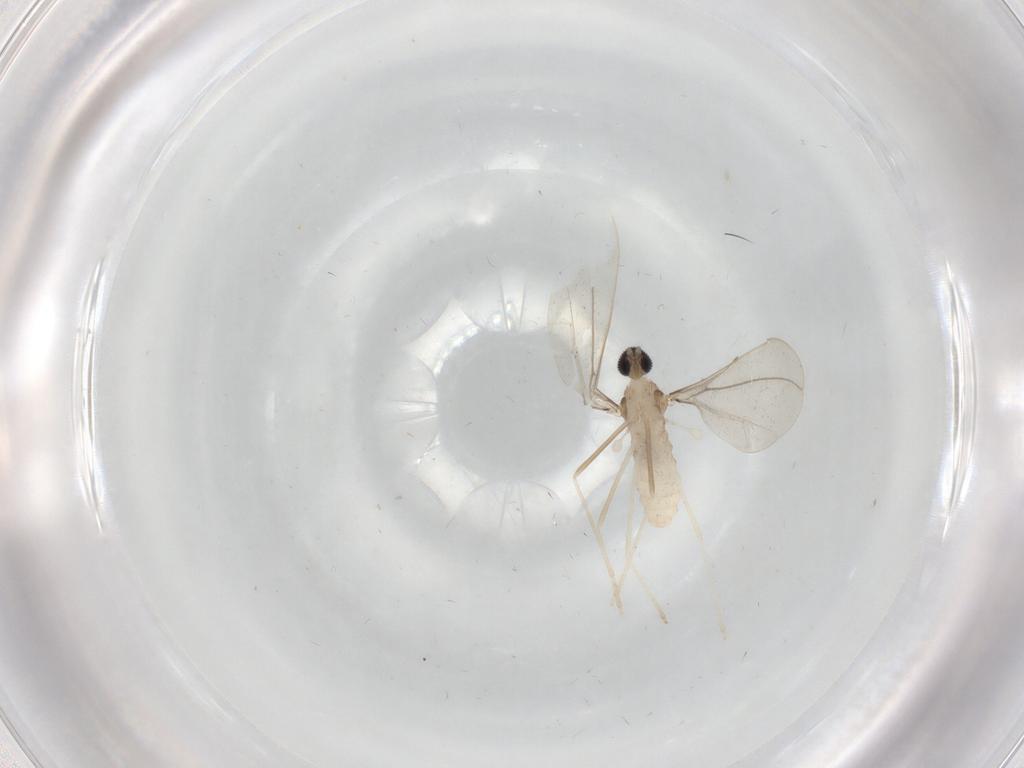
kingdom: Animalia
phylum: Arthropoda
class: Insecta
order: Diptera
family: Cecidomyiidae
